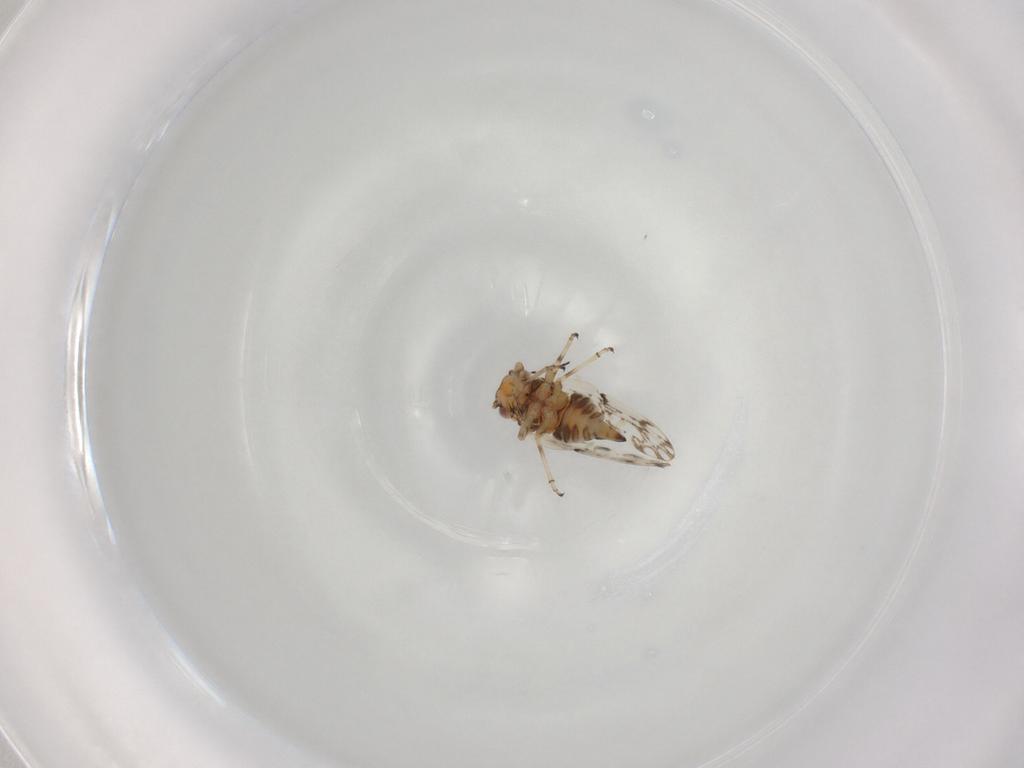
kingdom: Animalia
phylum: Arthropoda
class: Insecta
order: Hemiptera
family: Psylloidea_incertae_sedis
